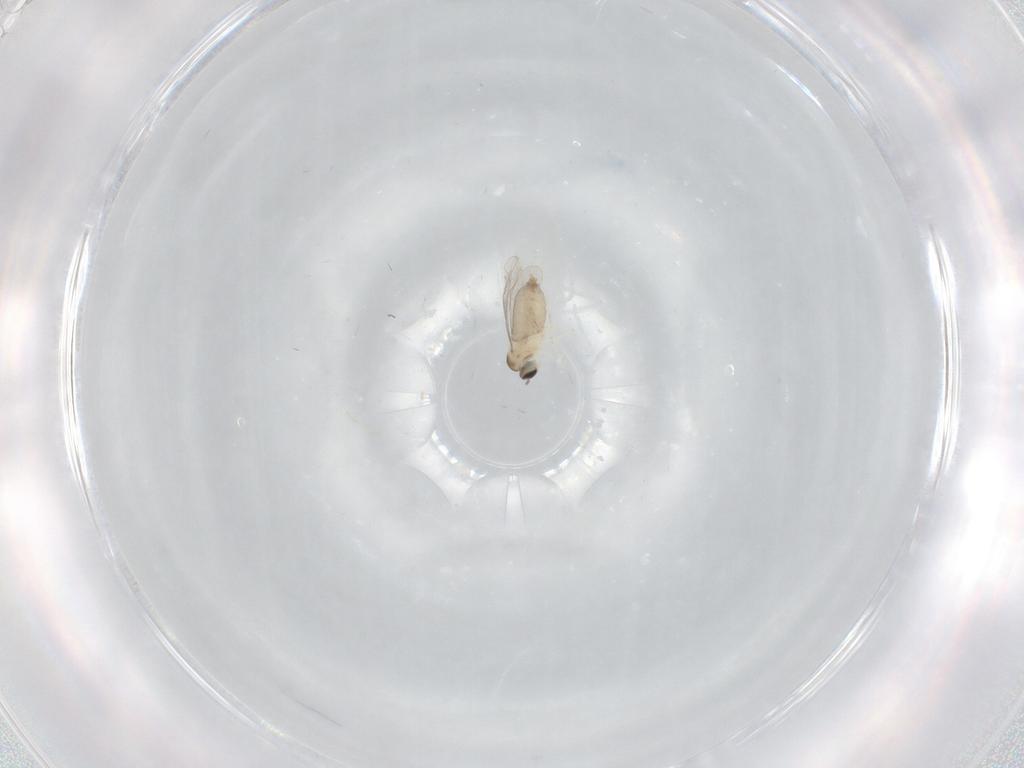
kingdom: Animalia
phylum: Arthropoda
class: Insecta
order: Diptera
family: Cecidomyiidae
